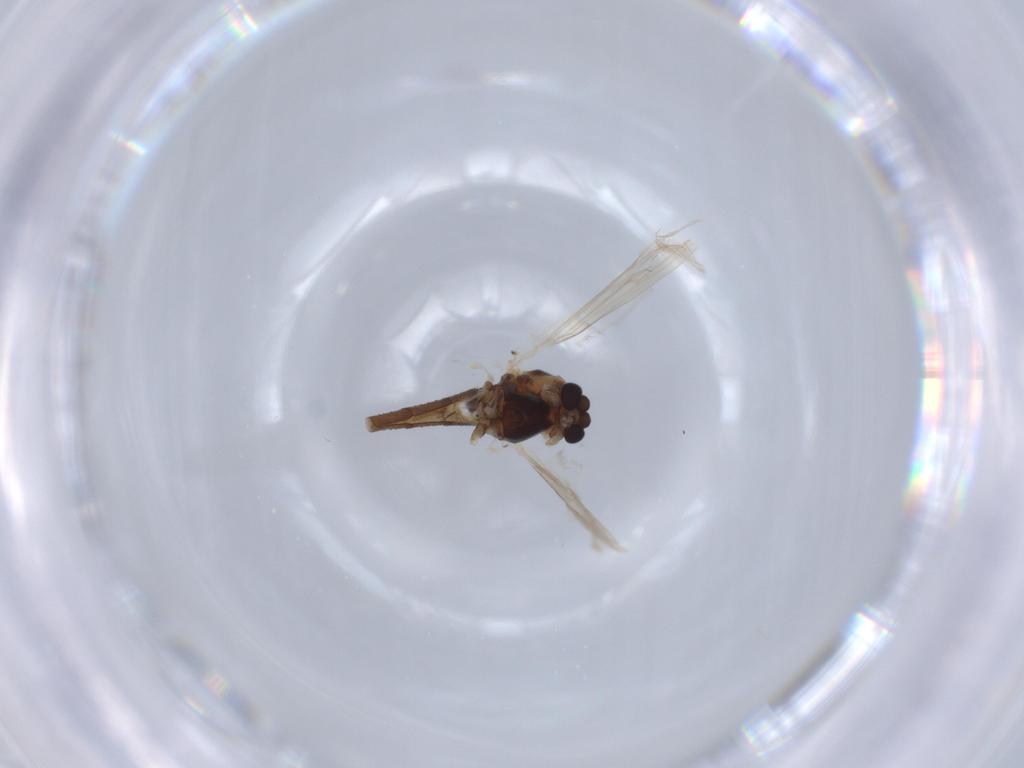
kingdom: Animalia
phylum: Arthropoda
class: Insecta
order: Diptera
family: Chironomidae
